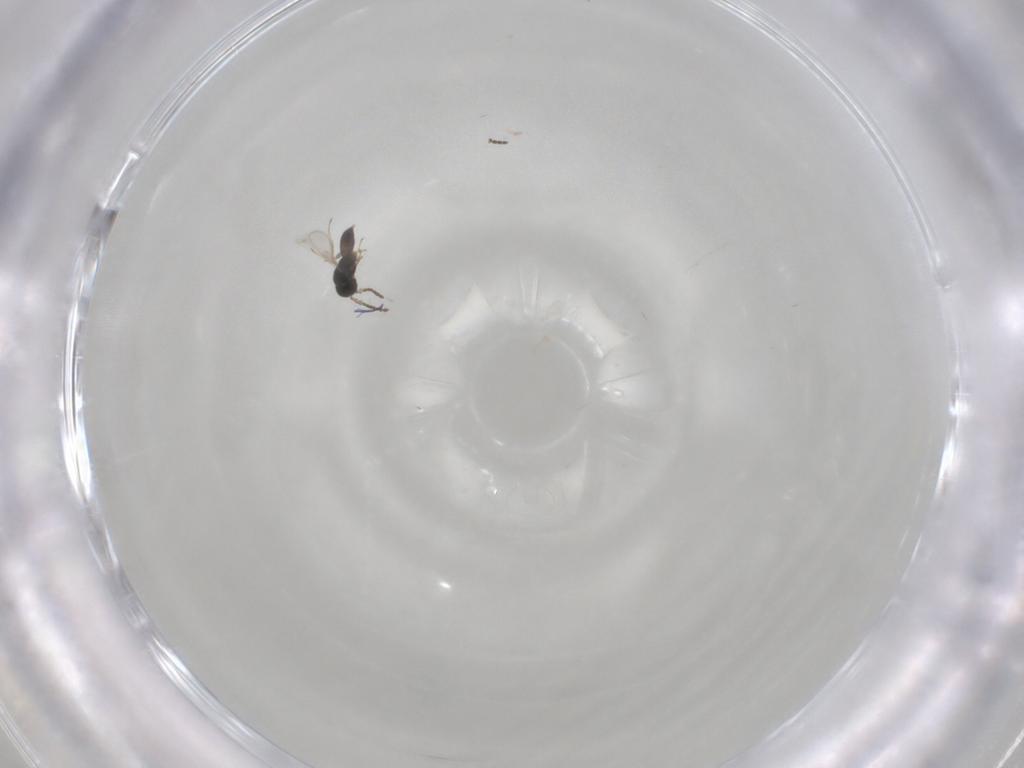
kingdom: Animalia
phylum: Arthropoda
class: Insecta
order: Hymenoptera
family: Scelionidae
